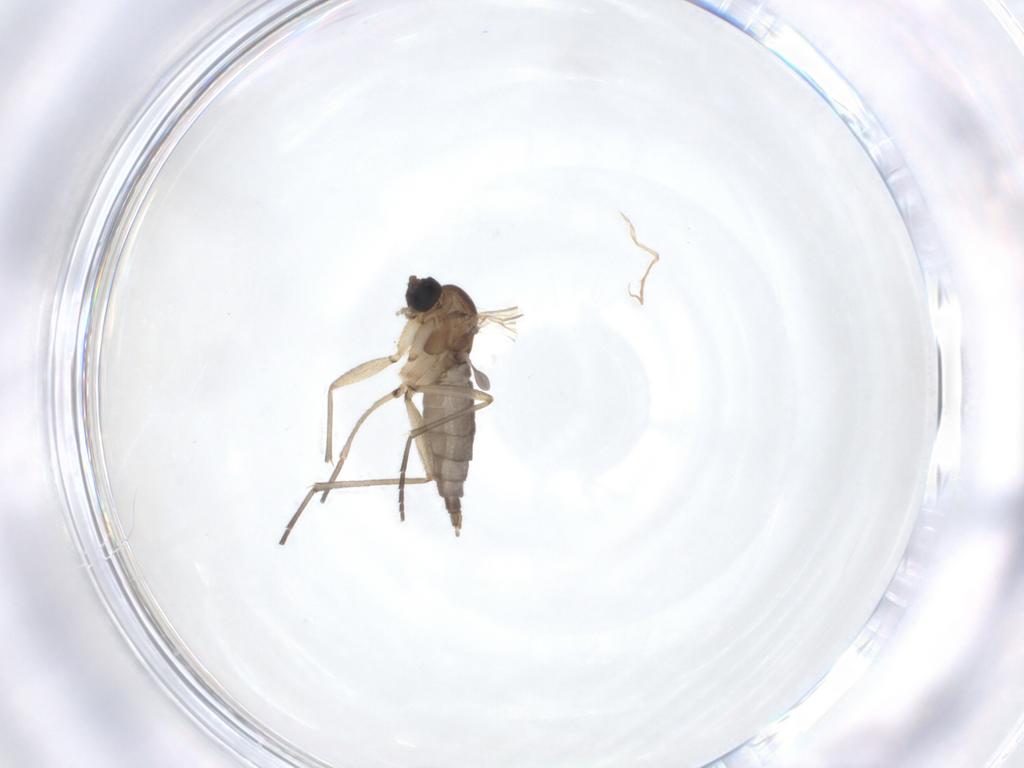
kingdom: Animalia
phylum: Arthropoda
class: Insecta
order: Diptera
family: Sciaridae
